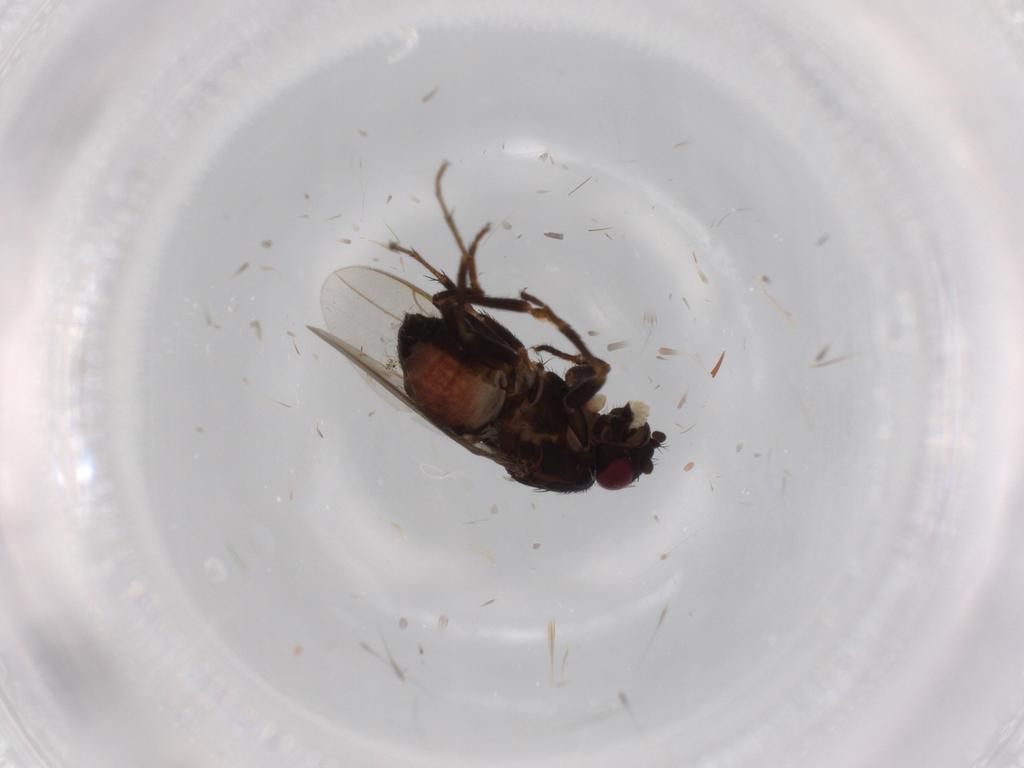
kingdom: Animalia
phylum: Arthropoda
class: Insecta
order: Diptera
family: Sphaeroceridae
